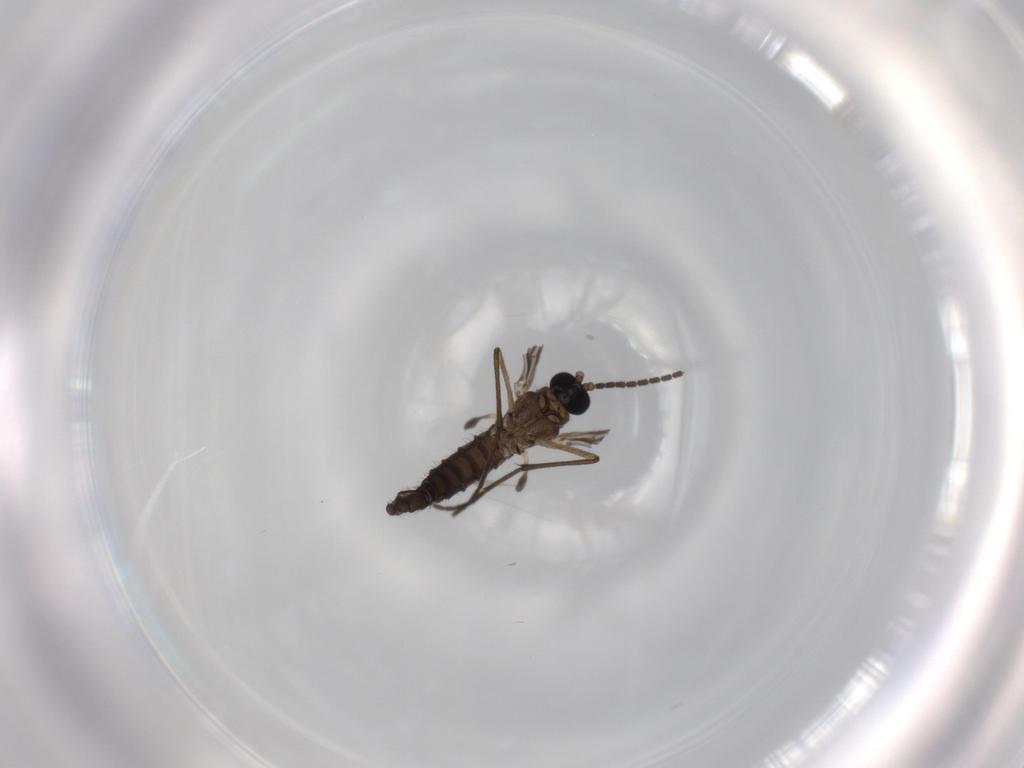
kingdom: Animalia
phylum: Arthropoda
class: Insecta
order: Diptera
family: Sciaridae
